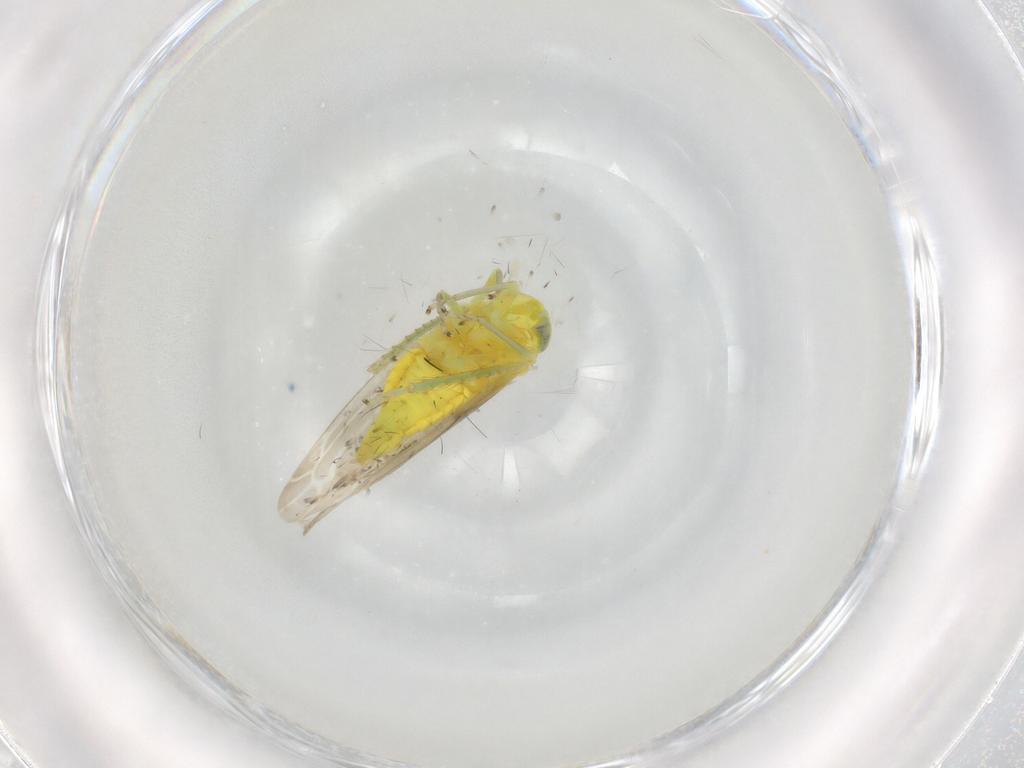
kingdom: Animalia
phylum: Arthropoda
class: Insecta
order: Hemiptera
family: Cicadellidae
